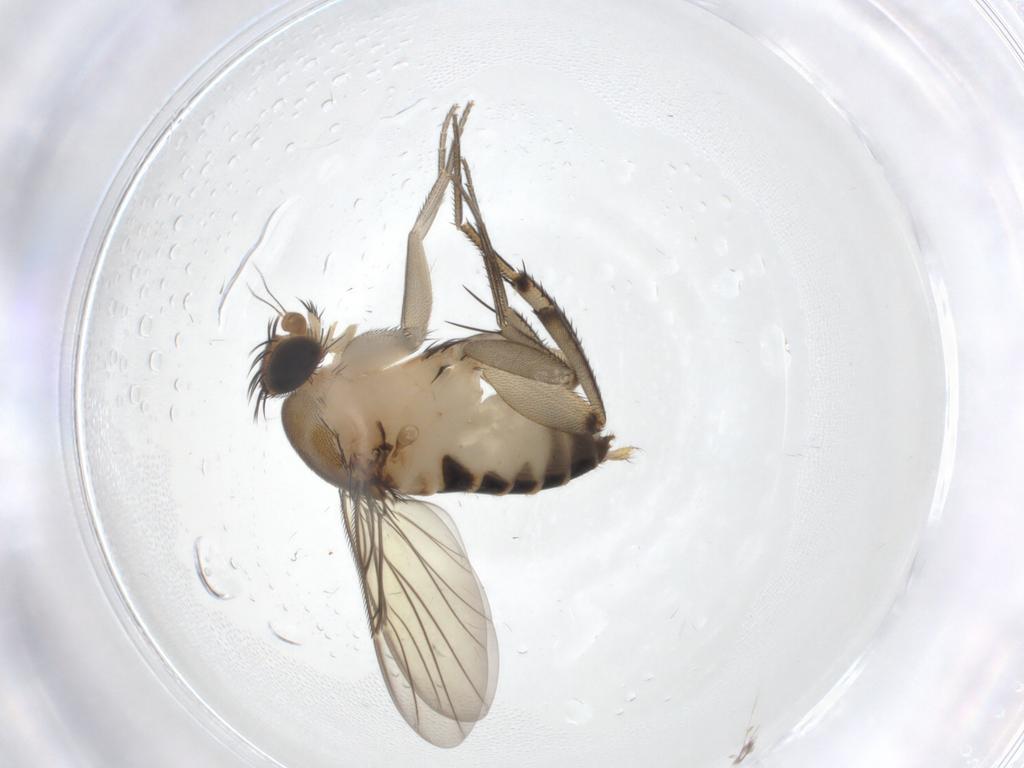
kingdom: Animalia
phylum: Arthropoda
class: Insecta
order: Diptera
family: Phoridae
